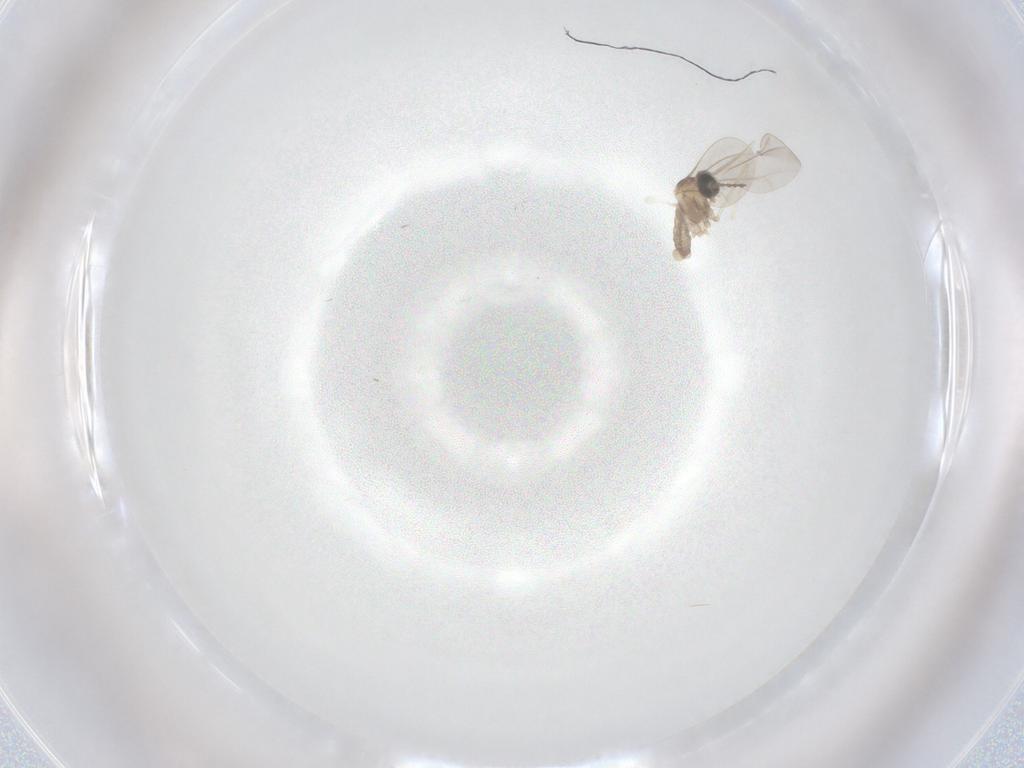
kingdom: Animalia
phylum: Arthropoda
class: Insecta
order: Diptera
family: Cecidomyiidae
